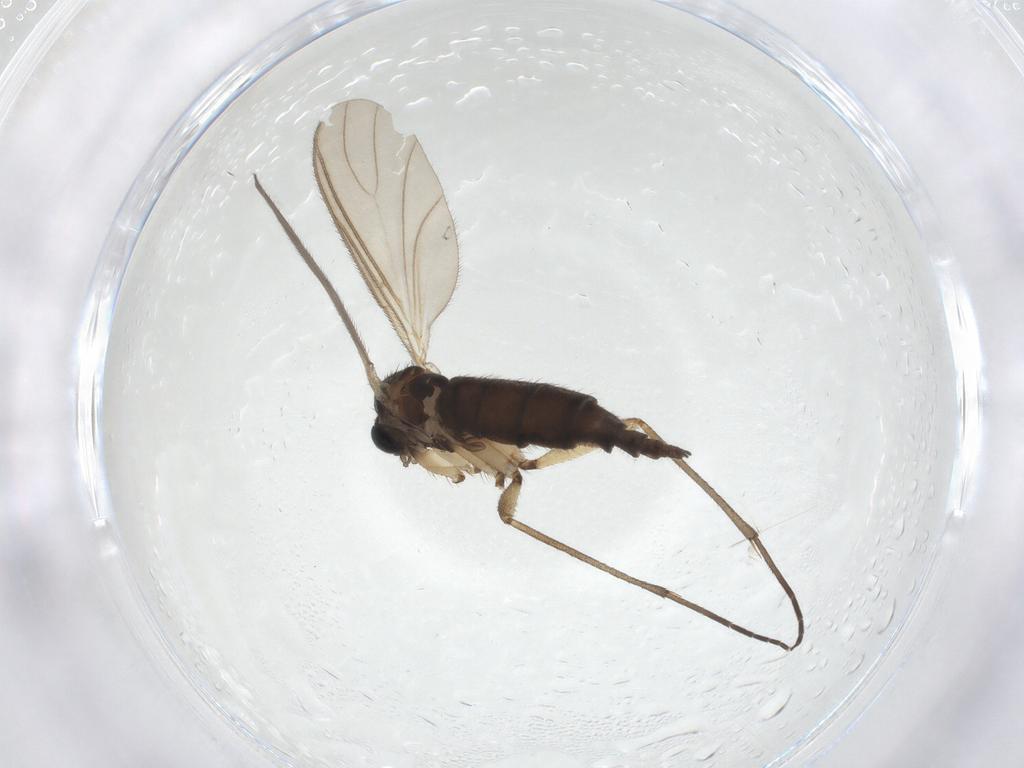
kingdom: Animalia
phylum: Arthropoda
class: Insecta
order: Diptera
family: Sciaridae
